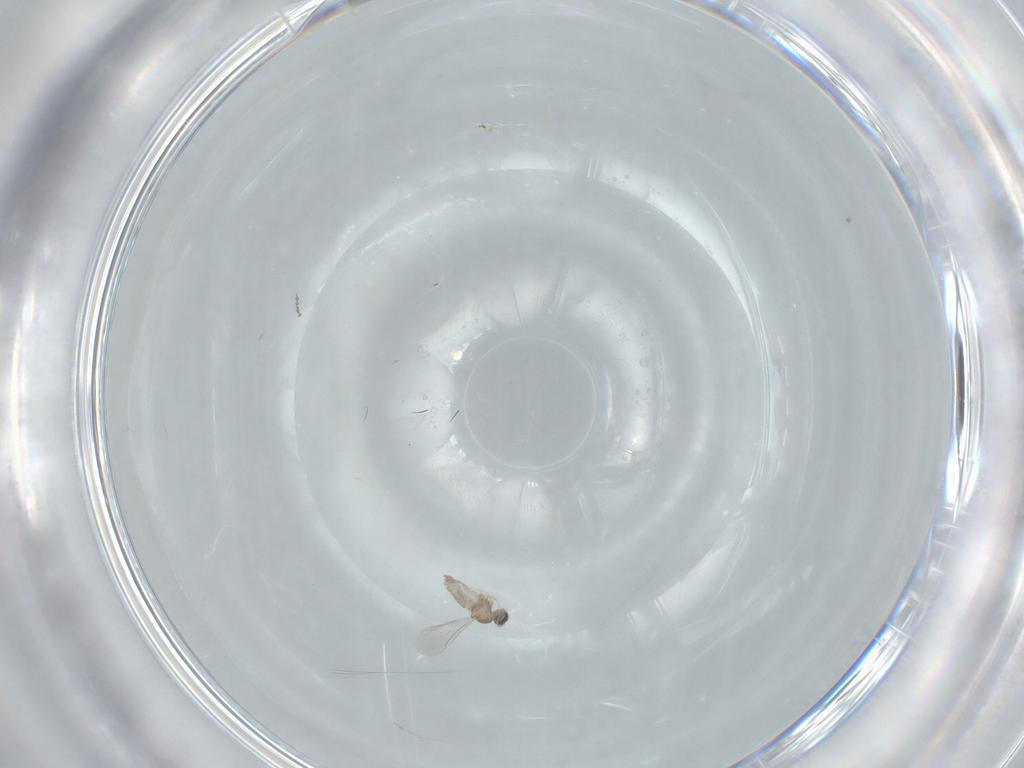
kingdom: Animalia
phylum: Arthropoda
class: Insecta
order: Diptera
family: Cecidomyiidae
